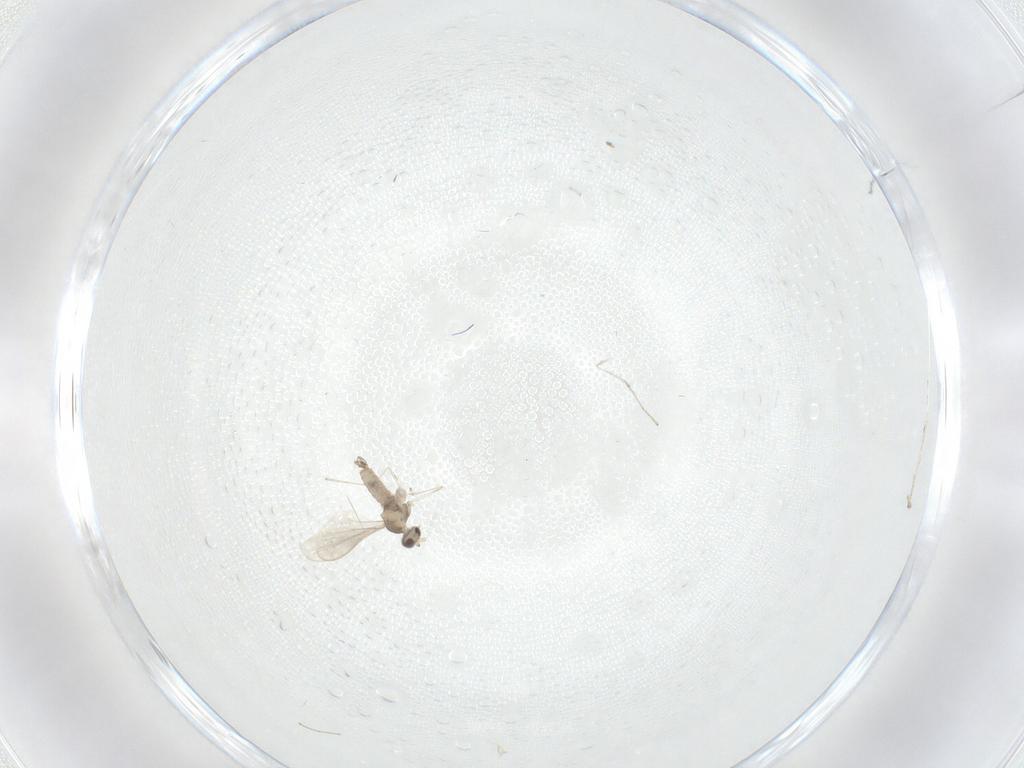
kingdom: Animalia
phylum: Arthropoda
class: Insecta
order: Diptera
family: Cecidomyiidae
